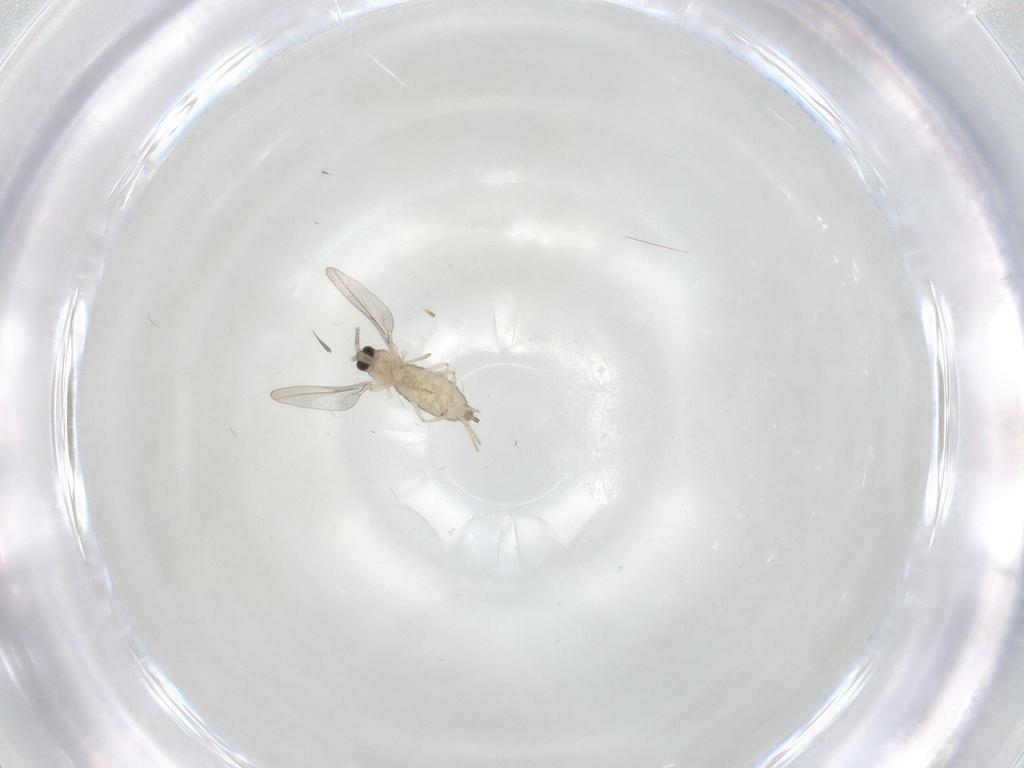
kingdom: Animalia
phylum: Arthropoda
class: Insecta
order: Diptera
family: Cecidomyiidae
